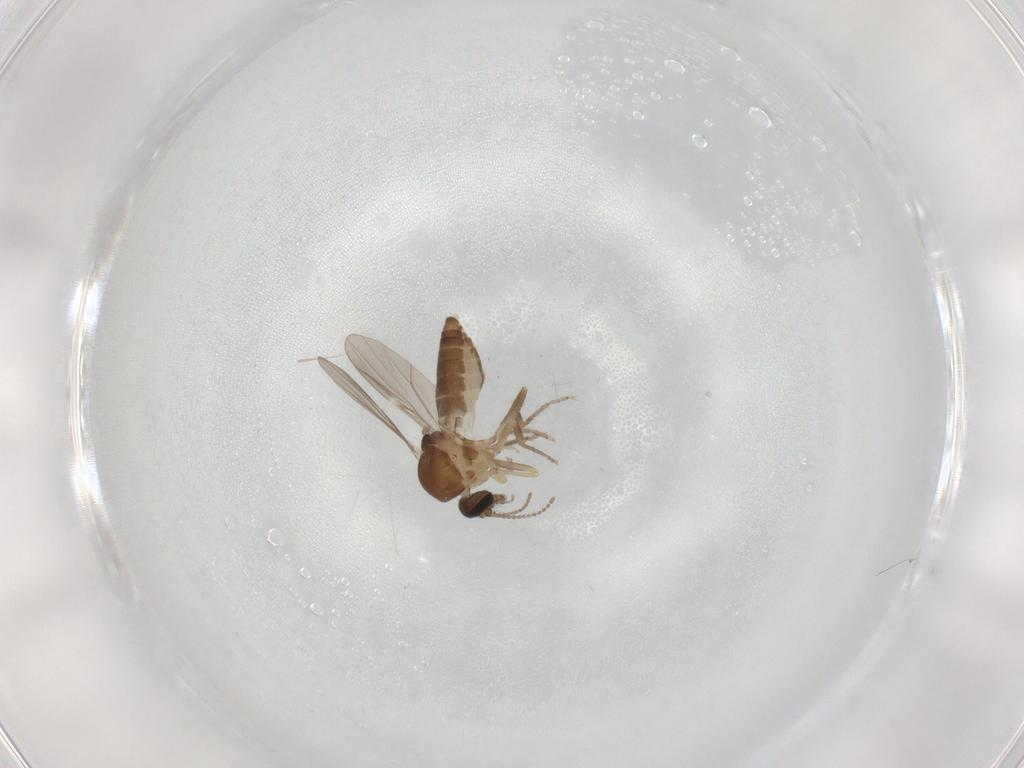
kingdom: Animalia
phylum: Arthropoda
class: Insecta
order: Diptera
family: Ceratopogonidae
